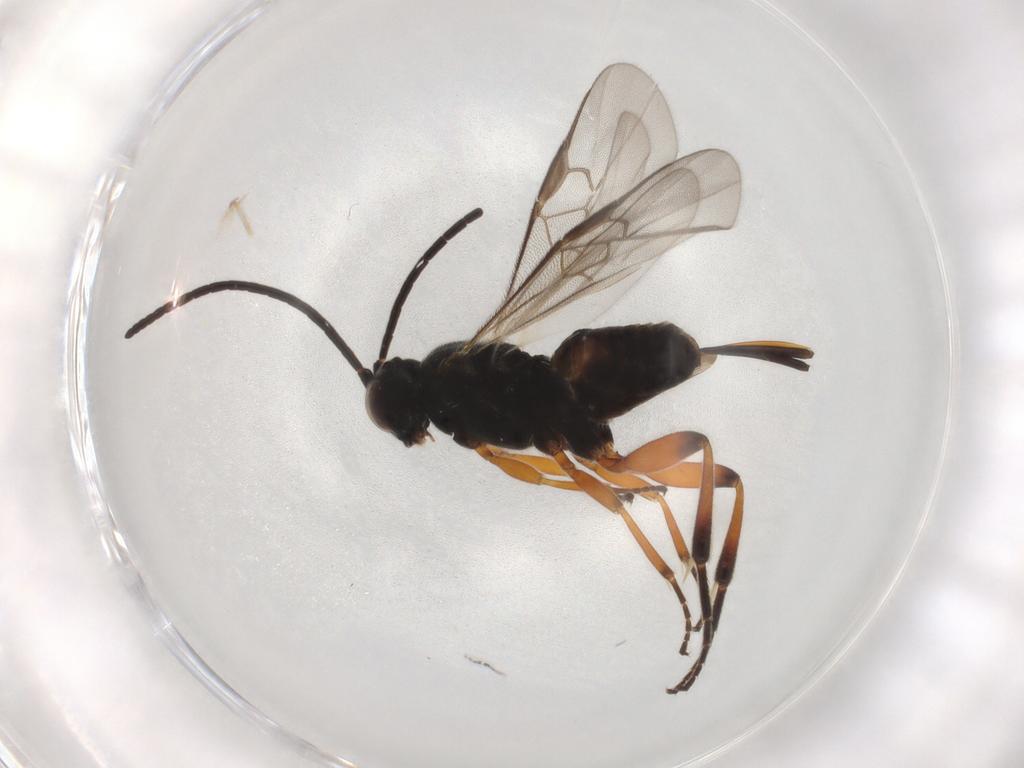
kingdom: Animalia
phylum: Arthropoda
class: Insecta
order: Hymenoptera
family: Braconidae
